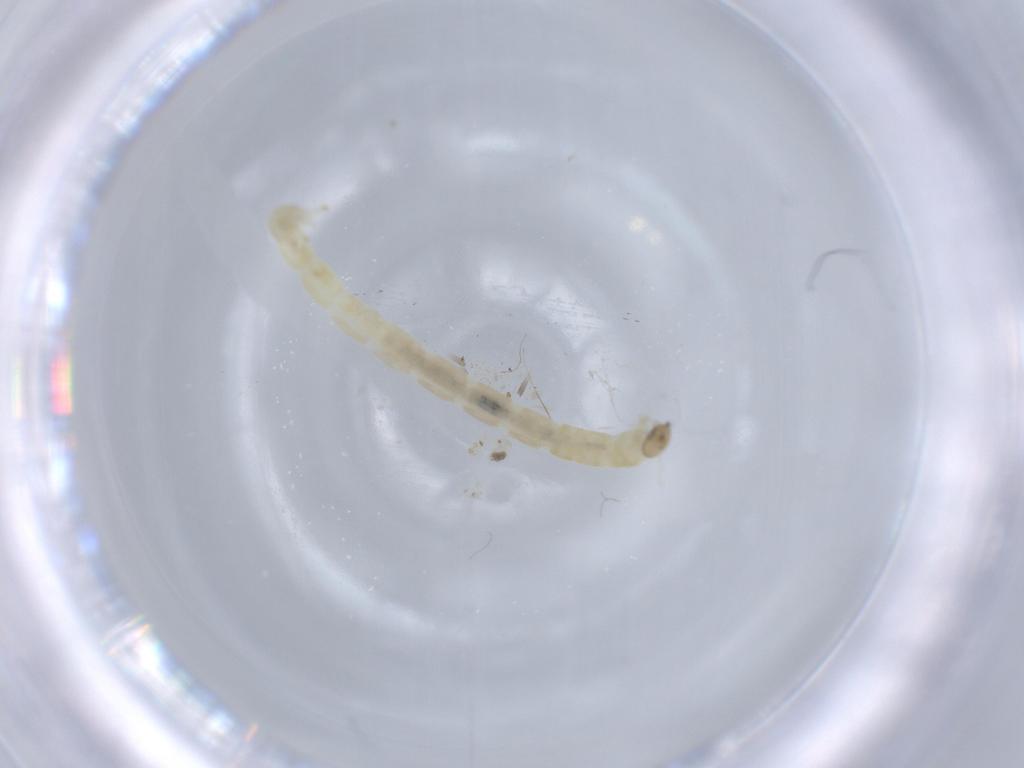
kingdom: Animalia
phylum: Arthropoda
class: Insecta
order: Diptera
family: Chironomidae
